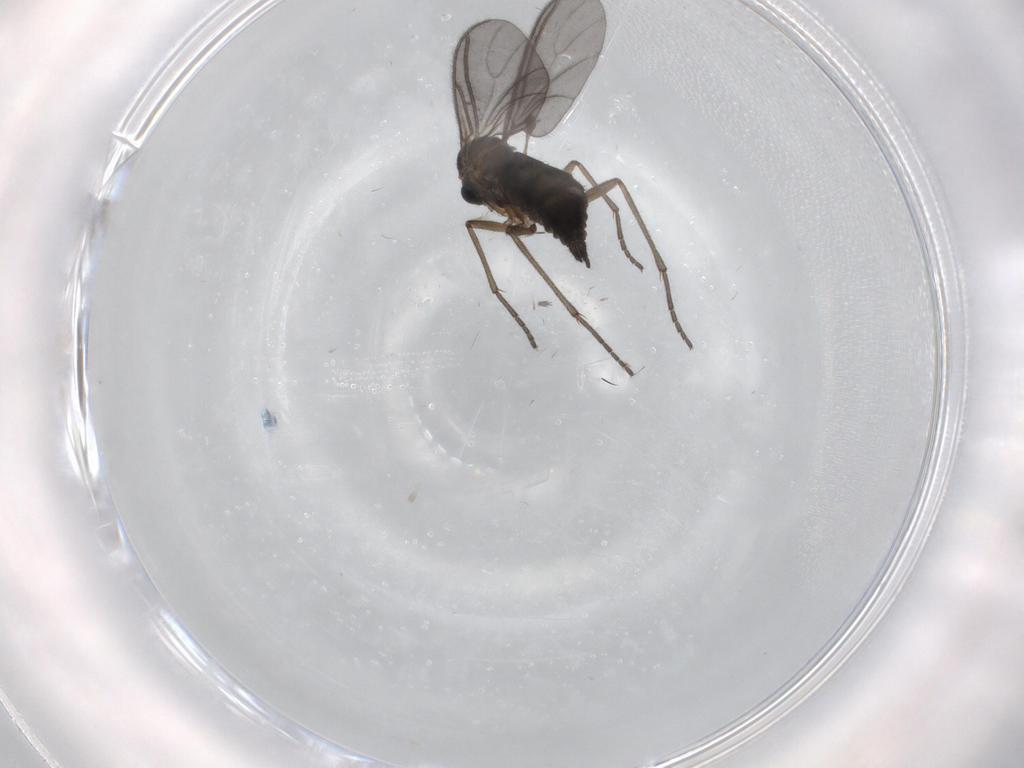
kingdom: Animalia
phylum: Arthropoda
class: Insecta
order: Diptera
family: Sciaridae
